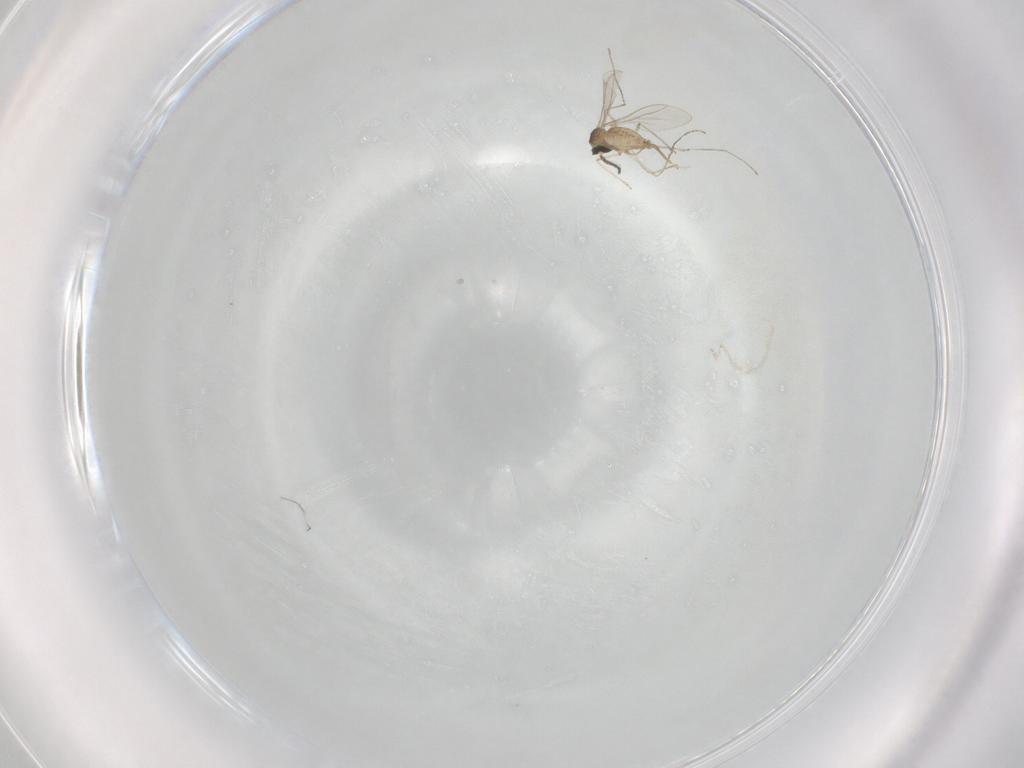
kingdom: Animalia
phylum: Arthropoda
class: Insecta
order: Diptera
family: Cecidomyiidae
